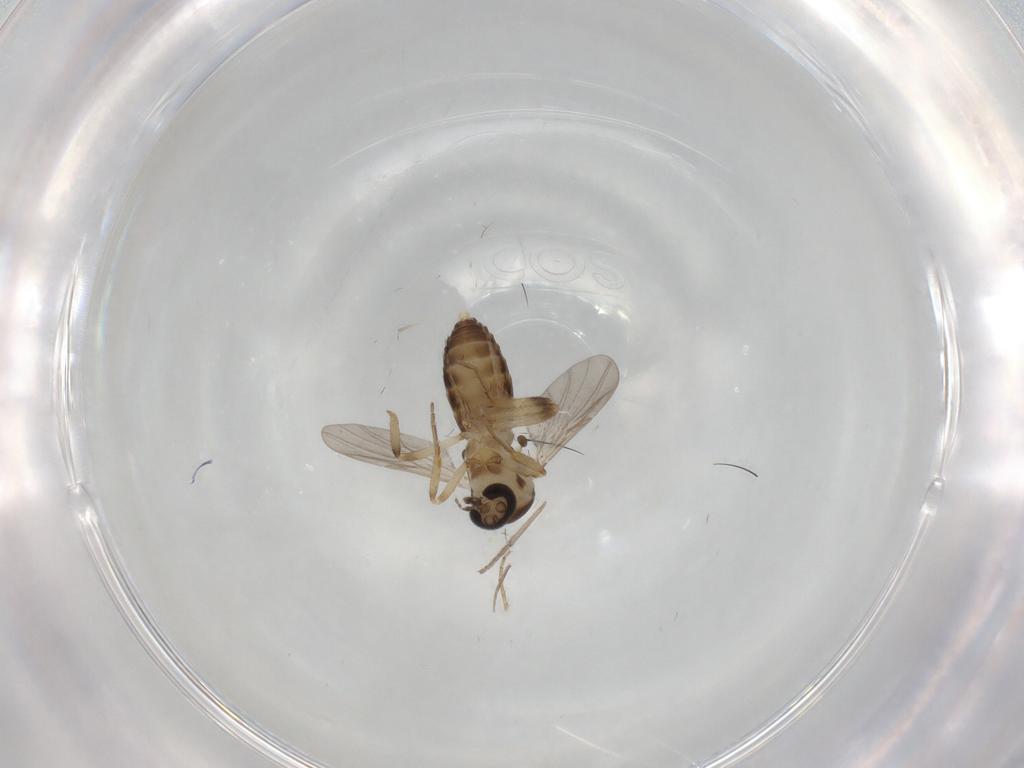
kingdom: Animalia
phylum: Arthropoda
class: Insecta
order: Diptera
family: Ceratopogonidae
